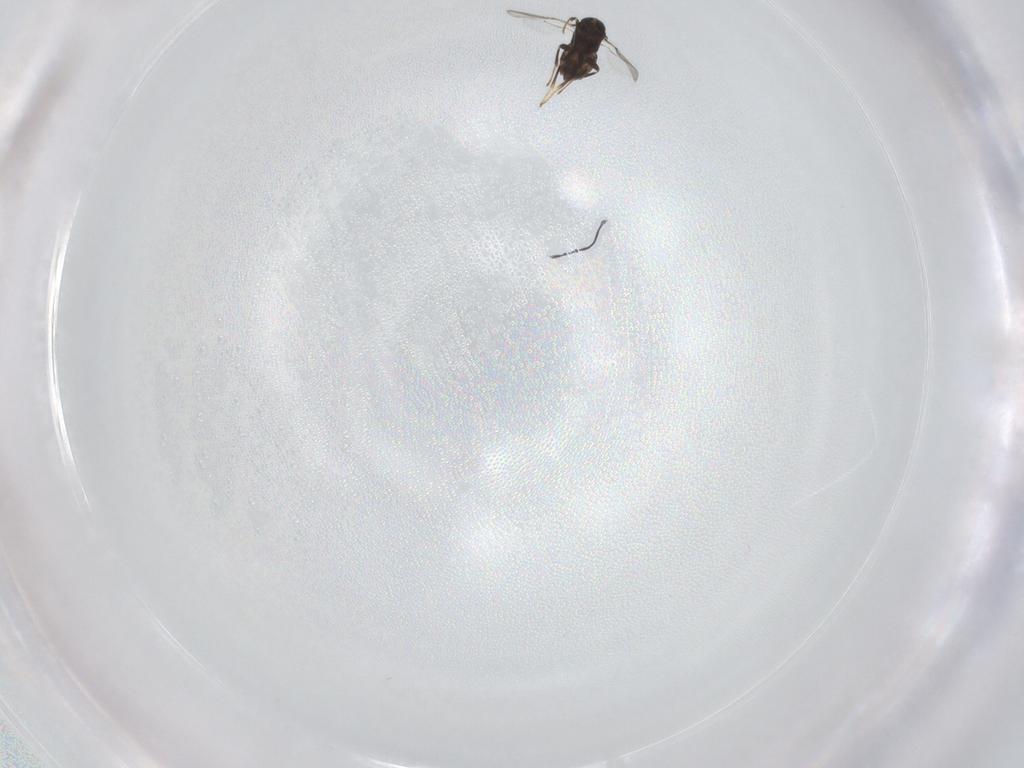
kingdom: Animalia
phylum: Arthropoda
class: Insecta
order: Hymenoptera
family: Encyrtidae
